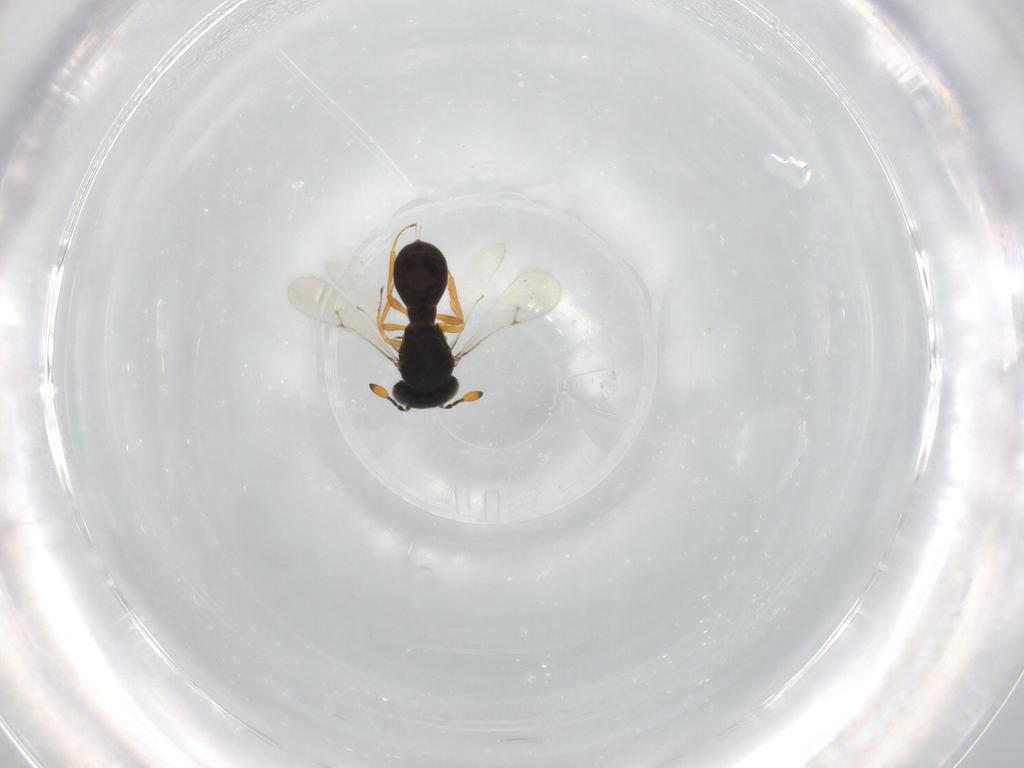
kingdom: Animalia
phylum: Arthropoda
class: Insecta
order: Hymenoptera
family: Scelionidae
